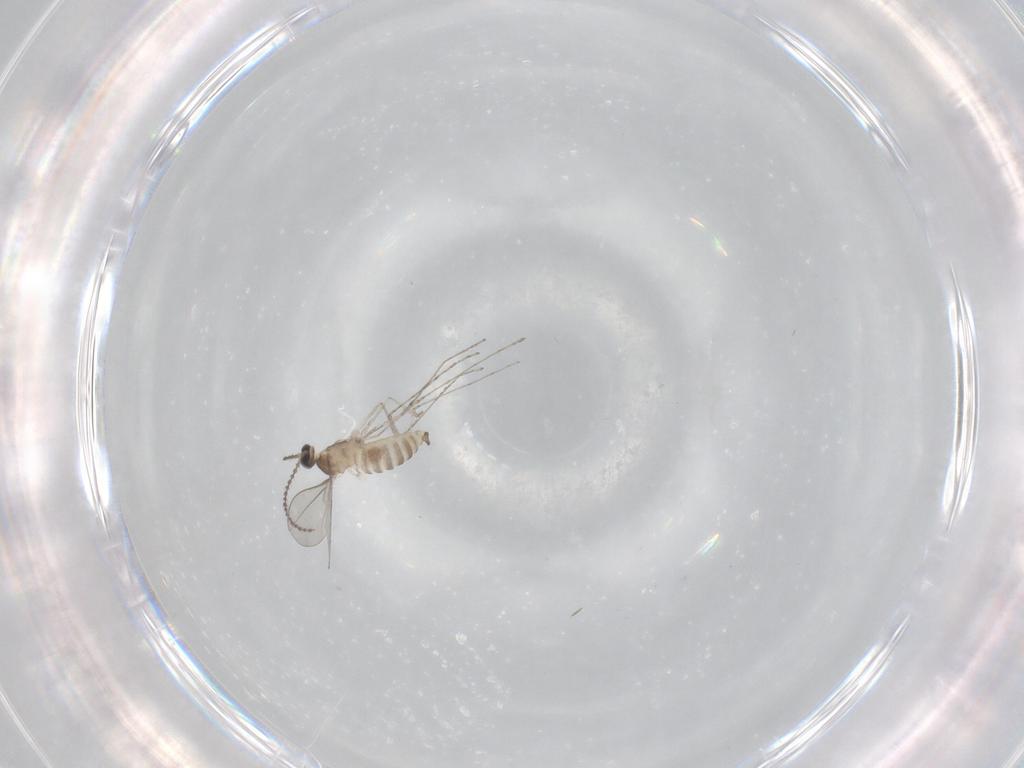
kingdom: Animalia
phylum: Arthropoda
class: Insecta
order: Diptera
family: Cecidomyiidae
